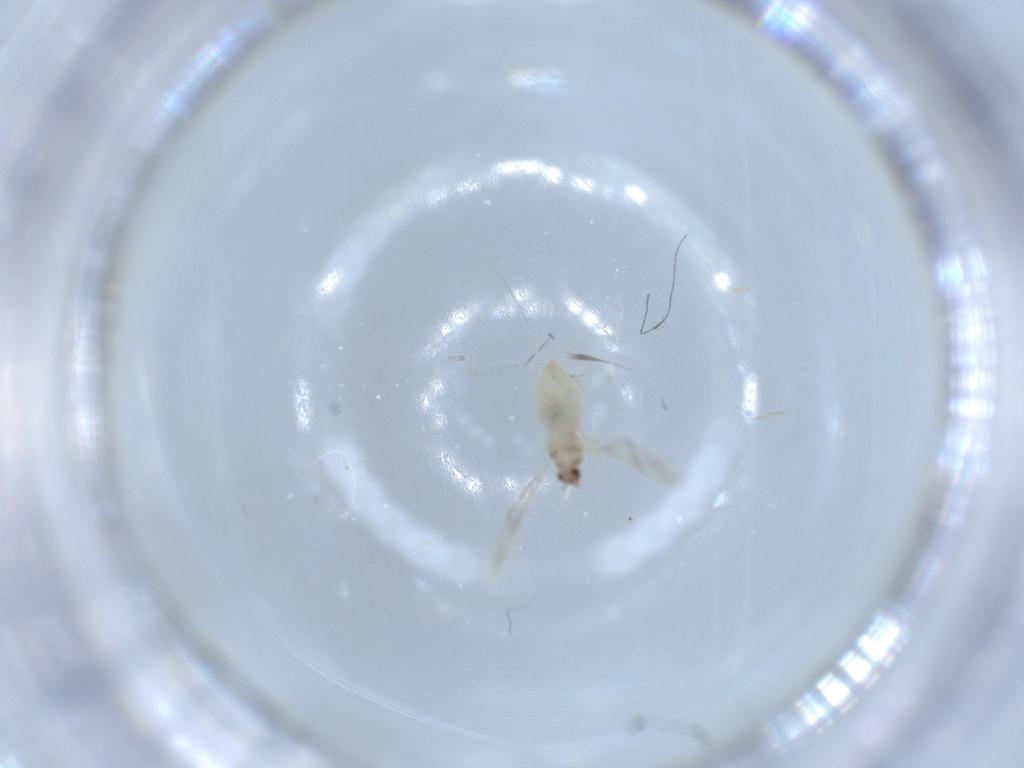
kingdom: Animalia
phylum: Arthropoda
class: Insecta
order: Diptera
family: Cecidomyiidae
